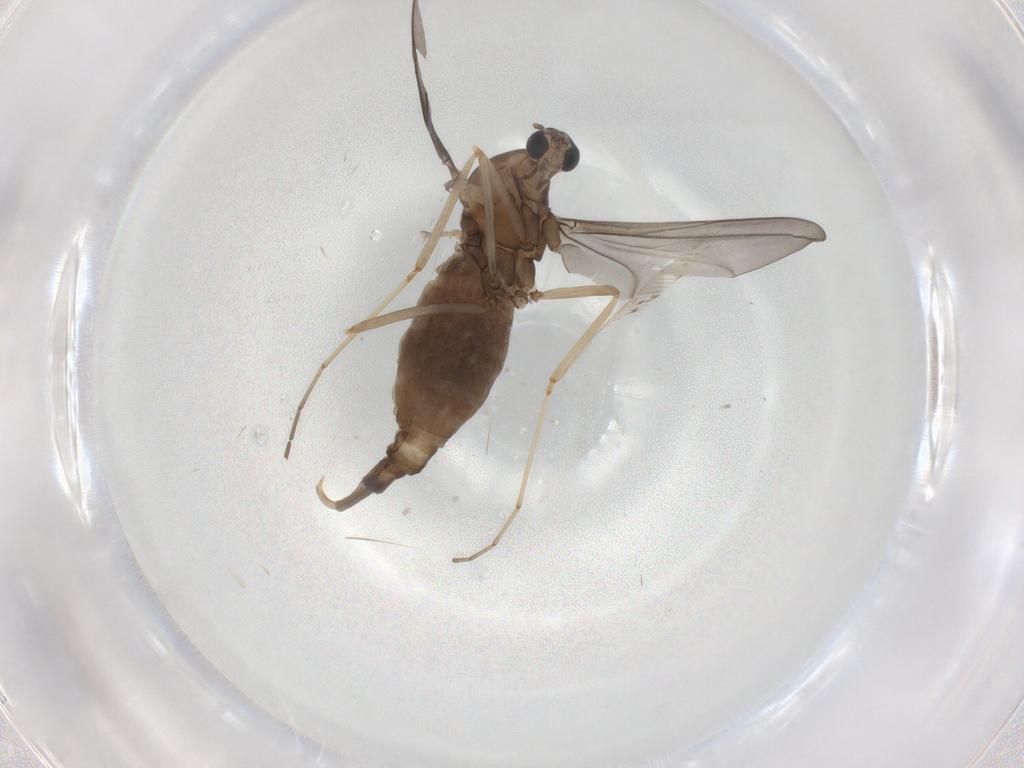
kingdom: Animalia
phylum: Arthropoda
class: Insecta
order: Diptera
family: Cecidomyiidae
